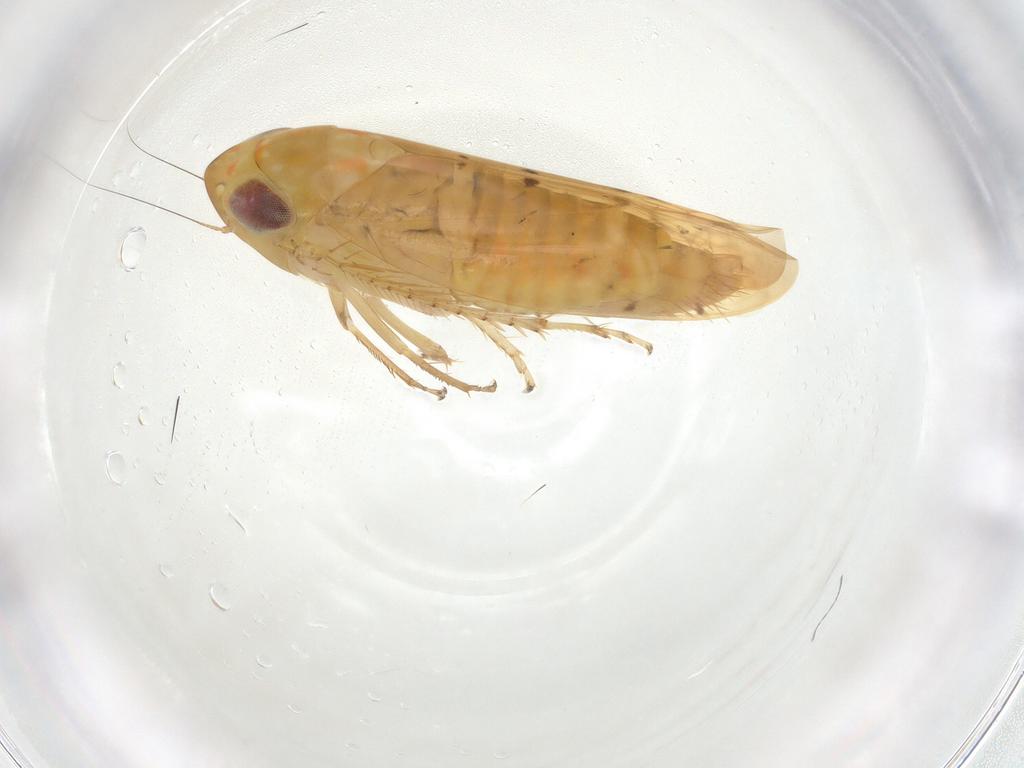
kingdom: Animalia
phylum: Arthropoda
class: Insecta
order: Hemiptera
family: Cicadellidae
